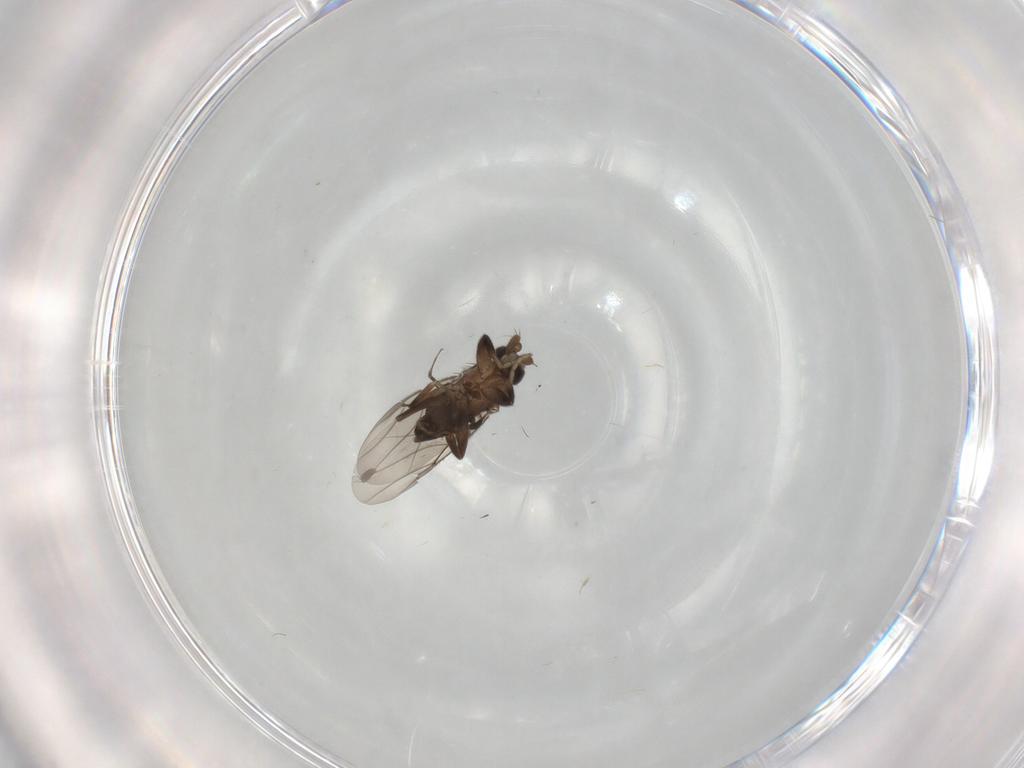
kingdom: Animalia
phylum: Arthropoda
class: Insecta
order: Diptera
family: Phoridae
